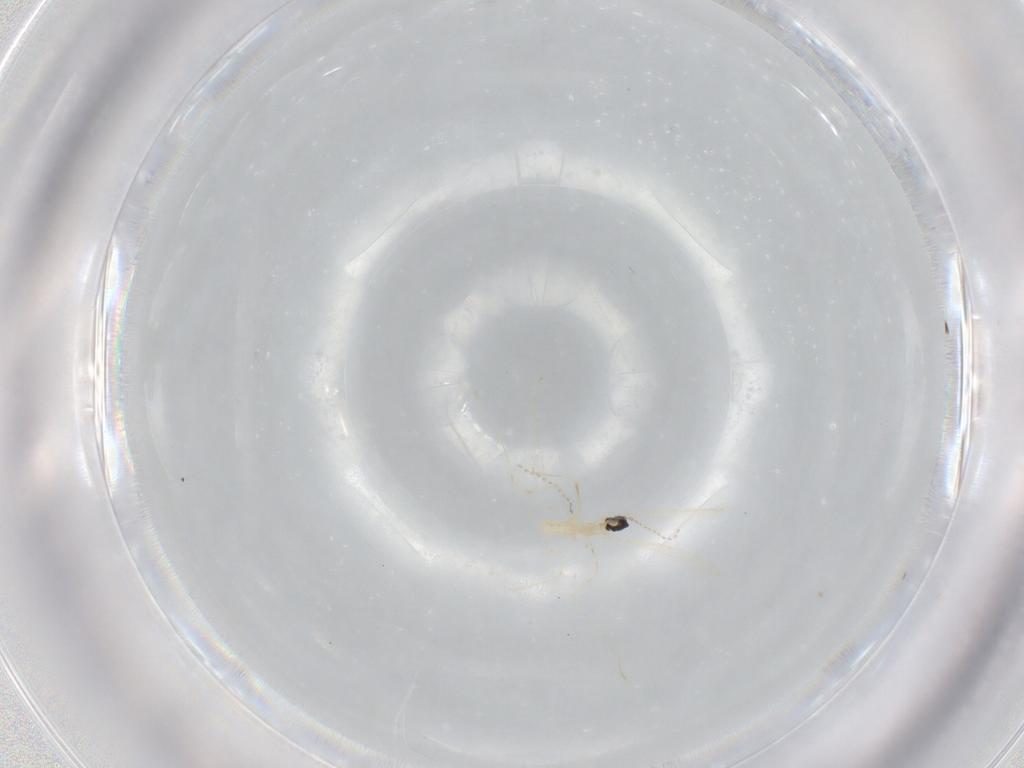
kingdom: Animalia
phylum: Arthropoda
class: Insecta
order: Diptera
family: Cecidomyiidae
